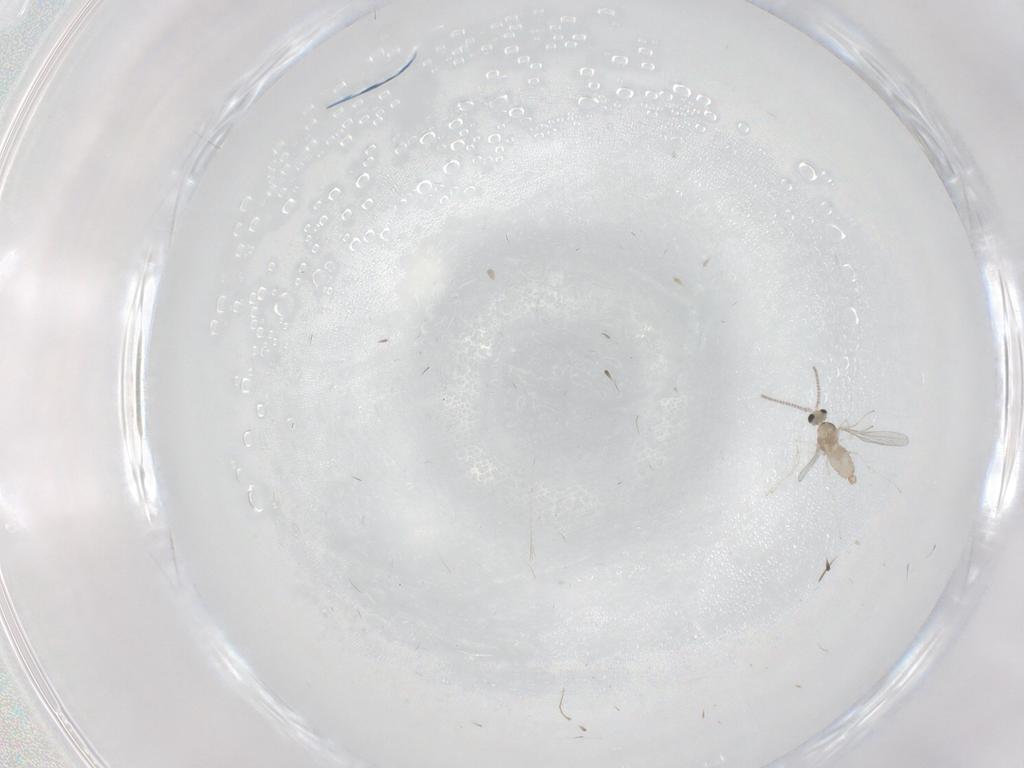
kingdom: Animalia
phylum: Arthropoda
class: Insecta
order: Diptera
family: Cecidomyiidae
